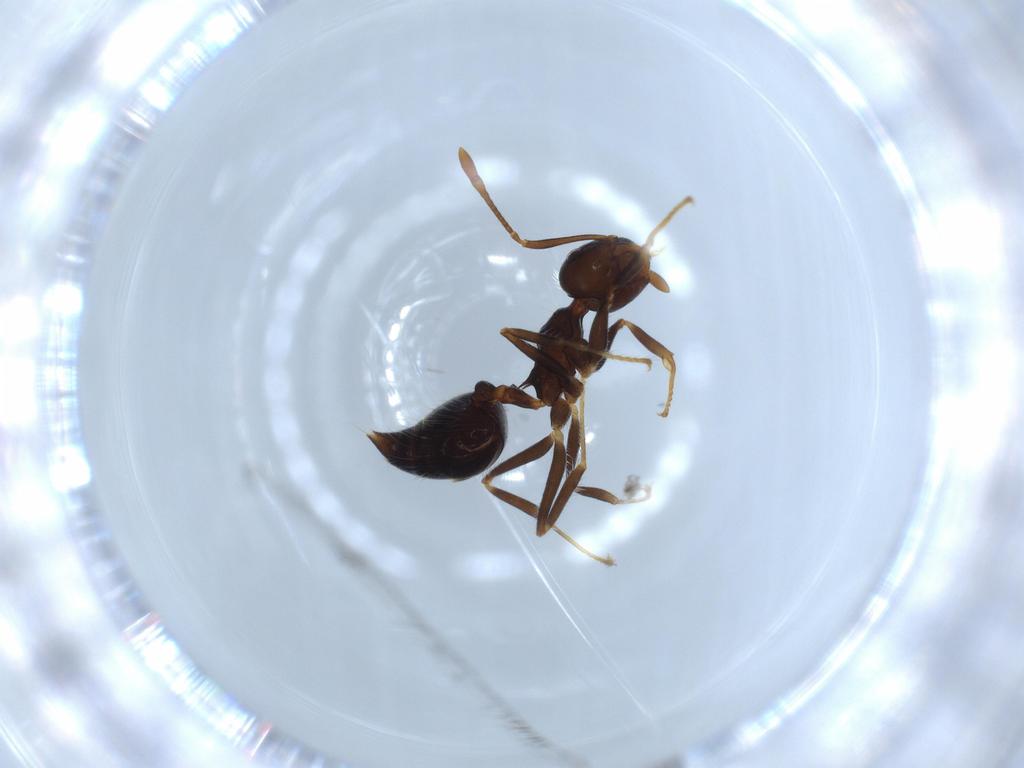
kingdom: Animalia
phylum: Arthropoda
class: Insecta
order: Hymenoptera
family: Formicidae
